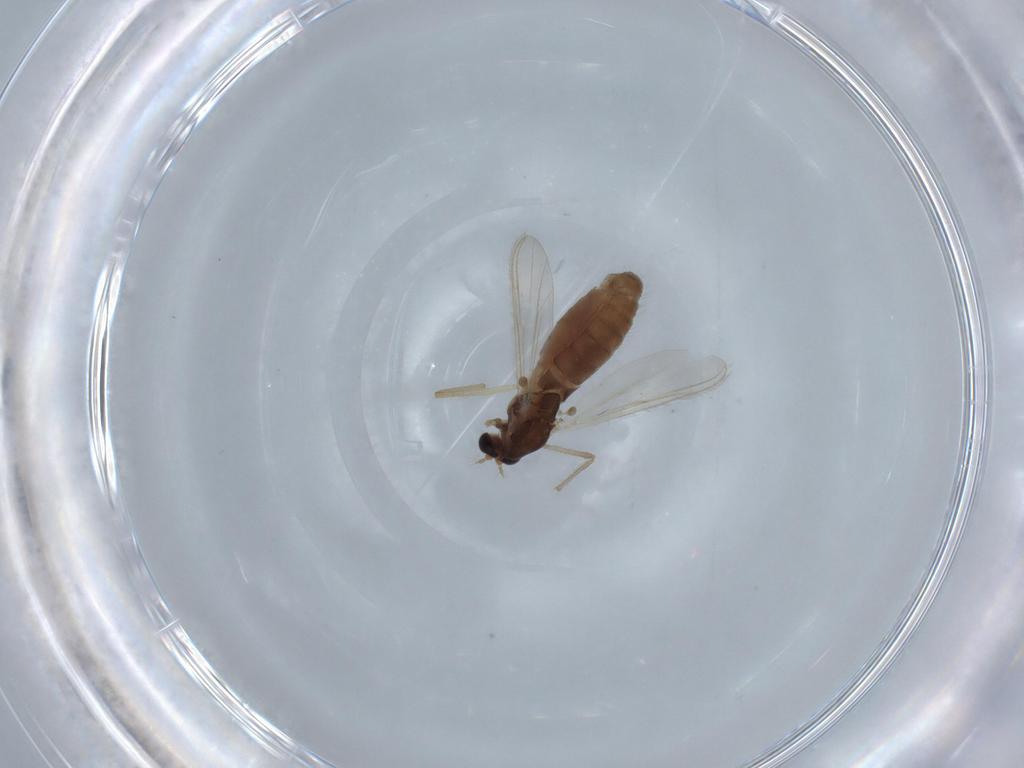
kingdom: Animalia
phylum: Arthropoda
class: Insecta
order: Diptera
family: Chironomidae
